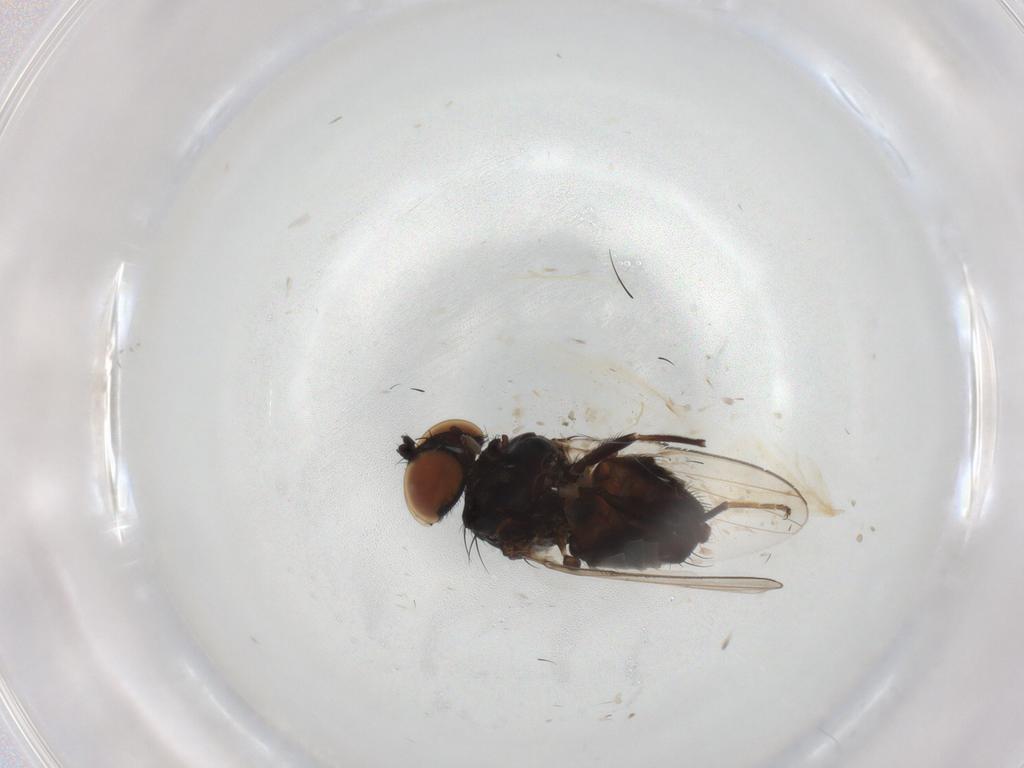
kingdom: Animalia
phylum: Arthropoda
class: Insecta
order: Diptera
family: Milichiidae
